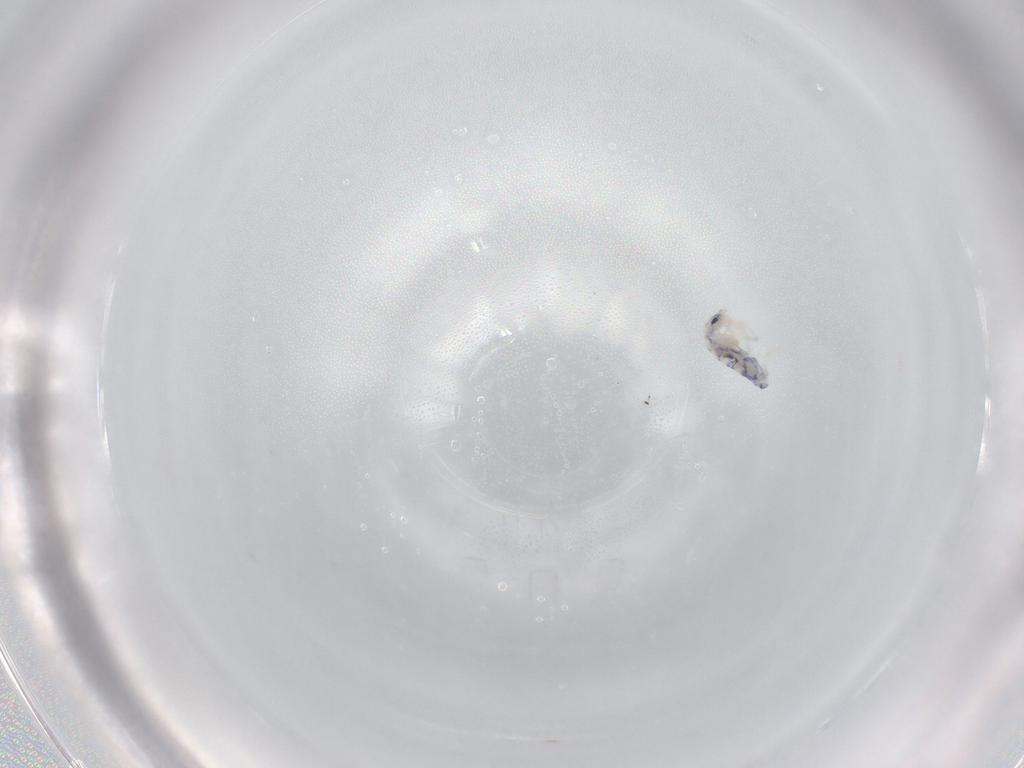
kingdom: Animalia
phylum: Arthropoda
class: Collembola
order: Entomobryomorpha
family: Entomobryidae
